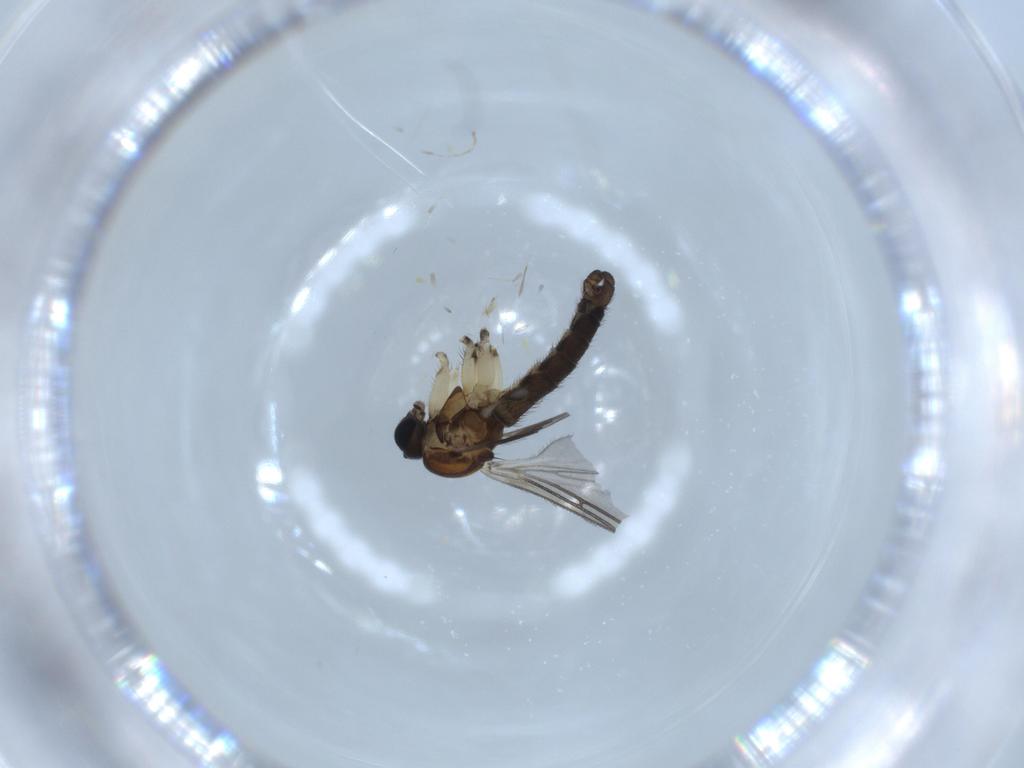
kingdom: Animalia
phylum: Arthropoda
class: Insecta
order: Diptera
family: Sciaridae
